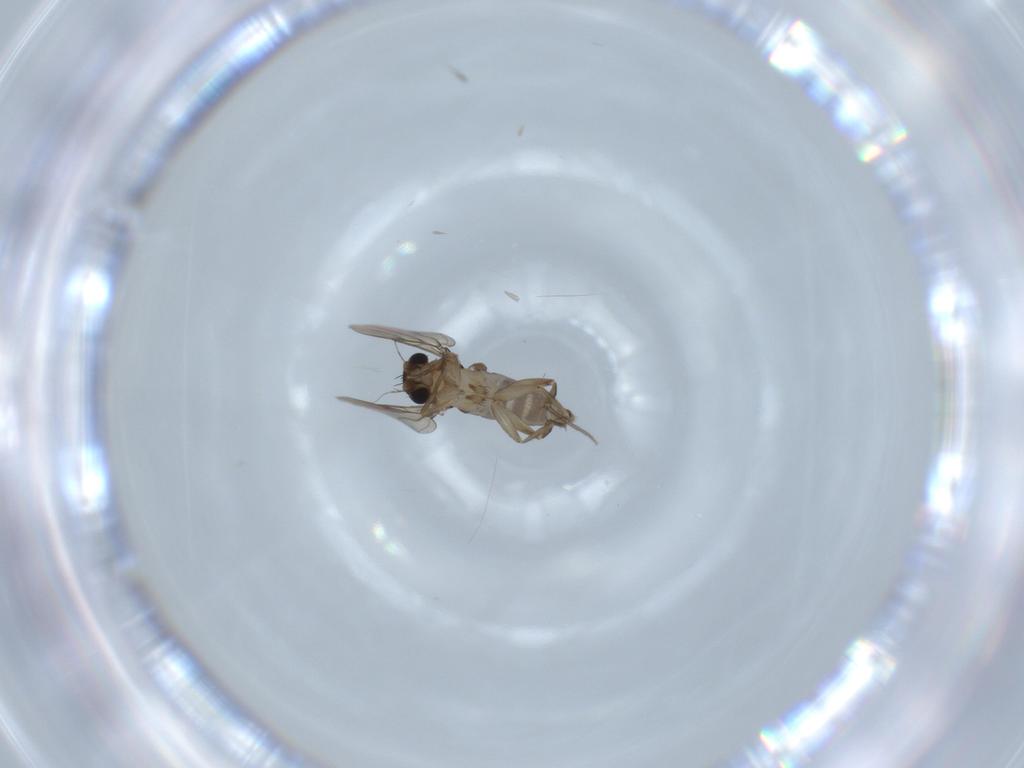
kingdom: Animalia
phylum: Arthropoda
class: Insecta
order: Diptera
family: Phoridae
